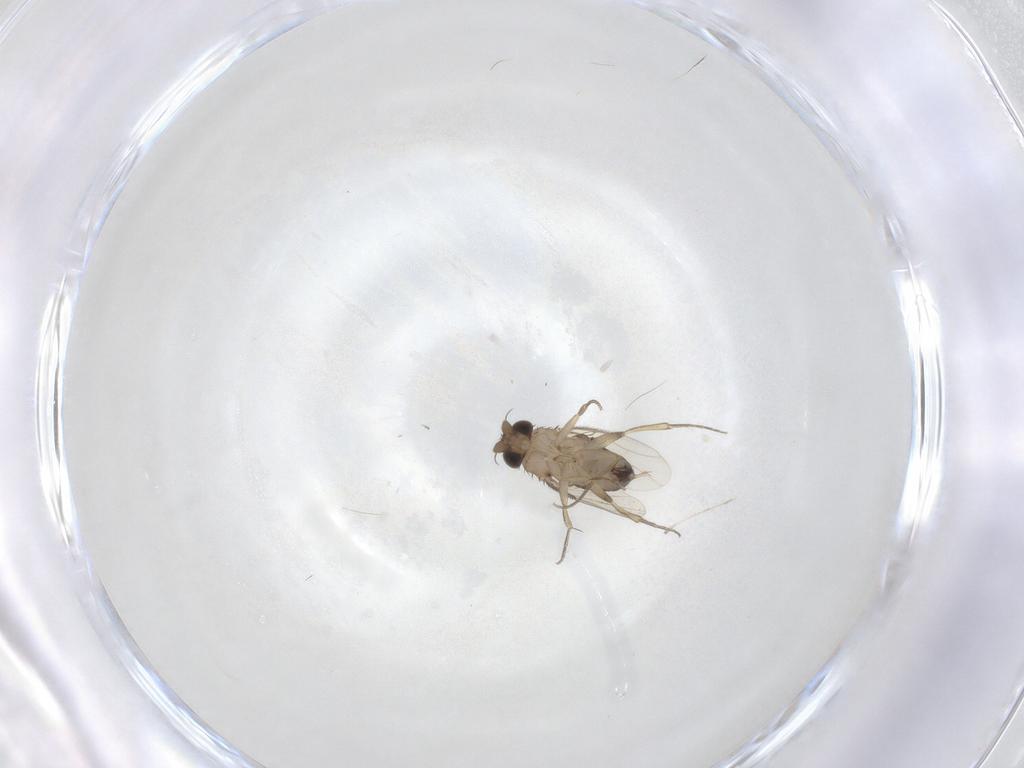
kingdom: Animalia
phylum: Arthropoda
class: Insecta
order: Diptera
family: Phoridae
